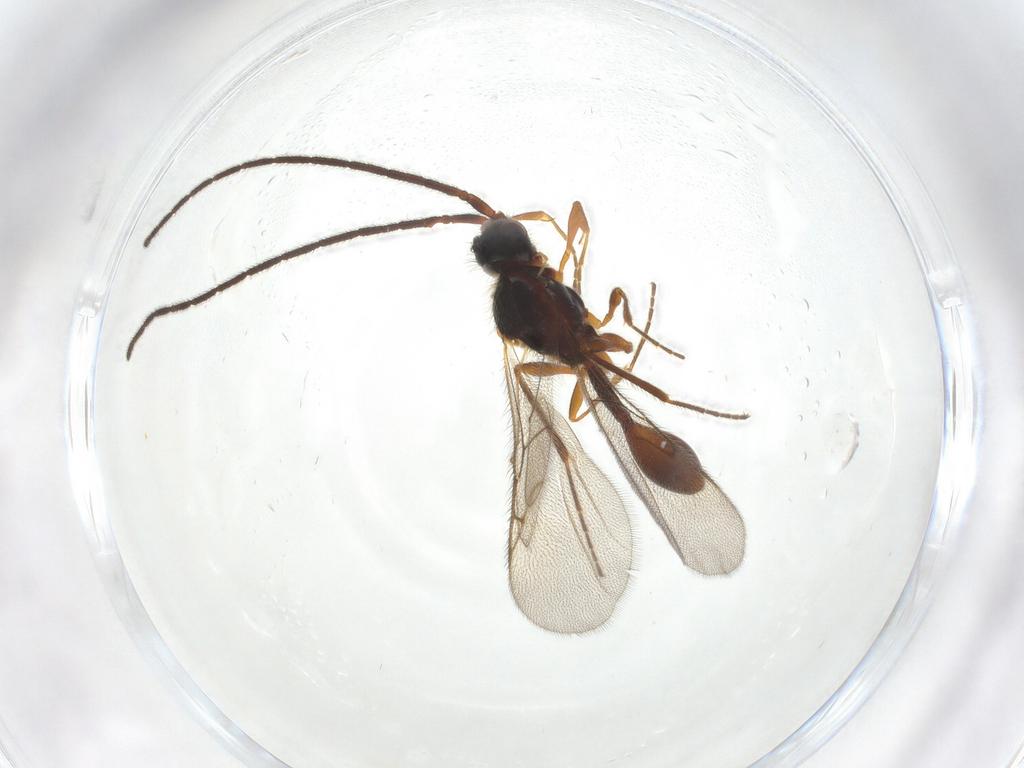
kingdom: Animalia
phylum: Arthropoda
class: Insecta
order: Hymenoptera
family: Diapriidae
